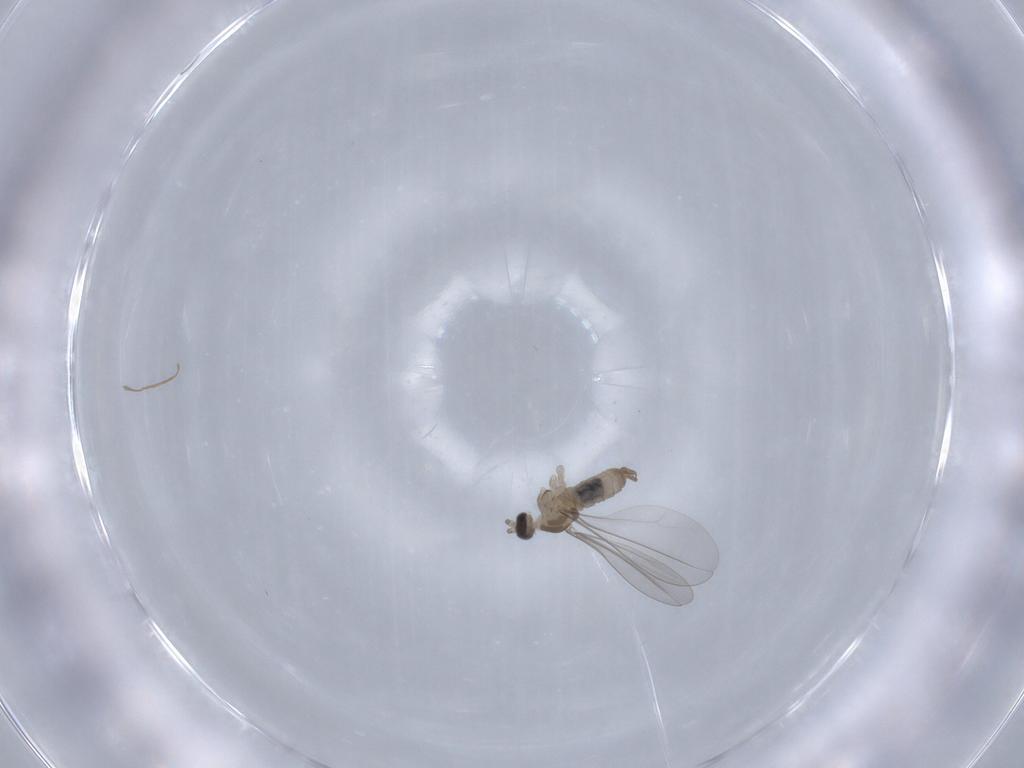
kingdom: Animalia
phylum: Arthropoda
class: Insecta
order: Diptera
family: Cecidomyiidae
